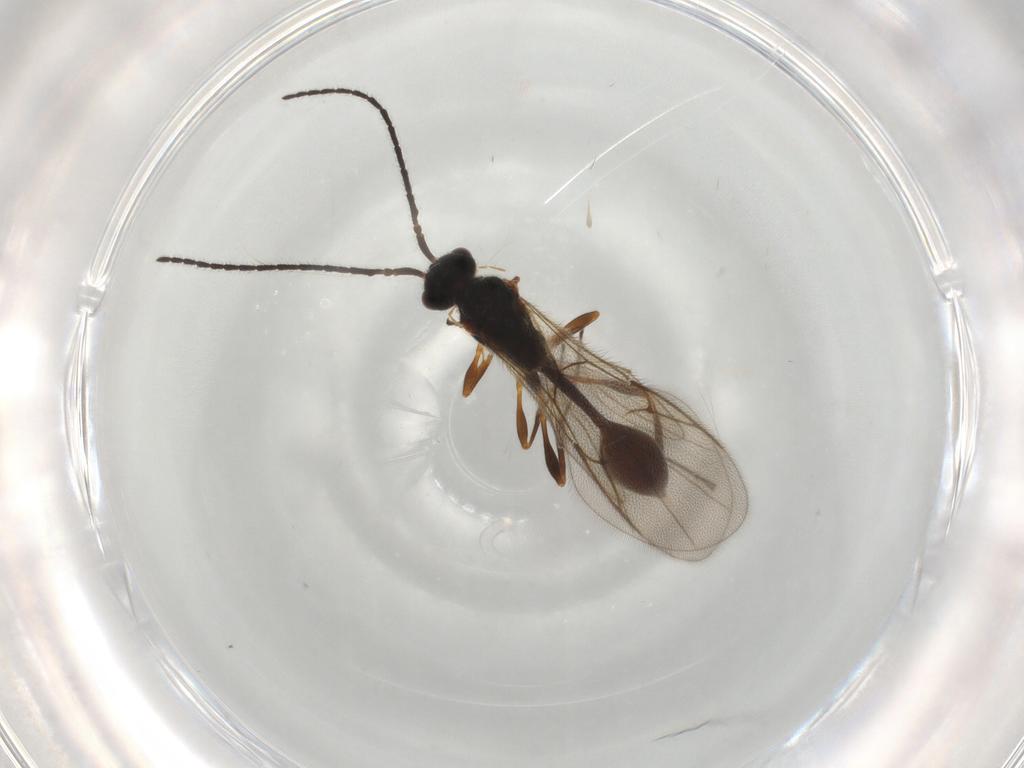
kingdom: Animalia
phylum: Arthropoda
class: Insecta
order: Hymenoptera
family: Diapriidae
